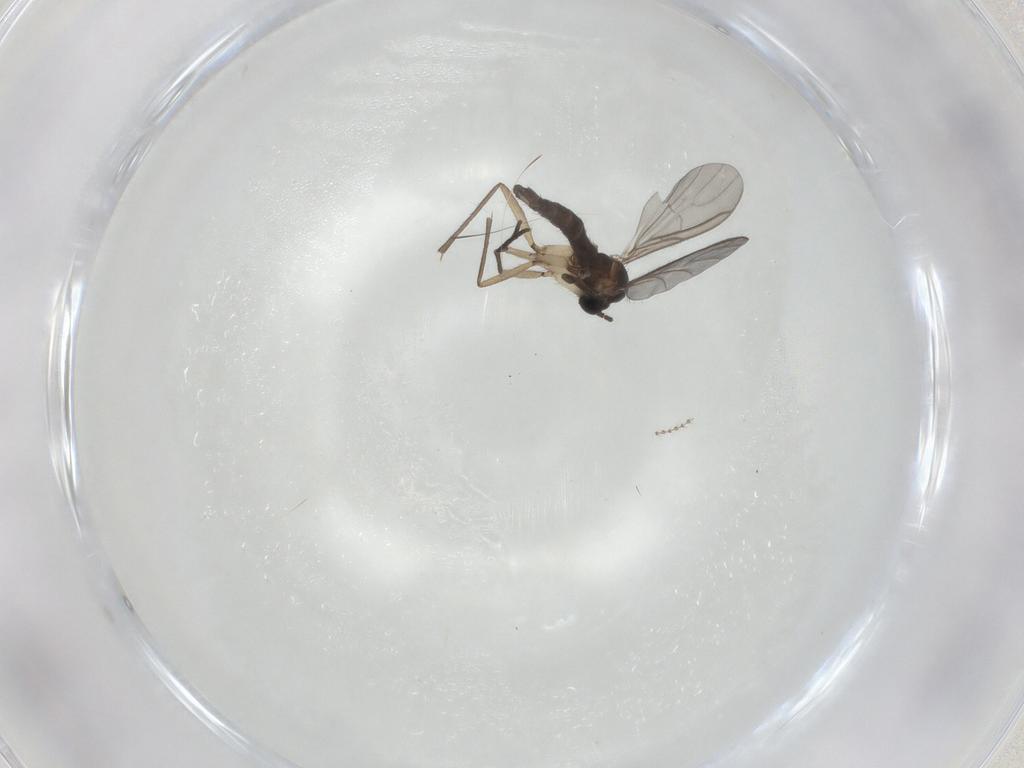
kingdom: Animalia
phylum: Arthropoda
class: Insecta
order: Diptera
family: Sciaridae
